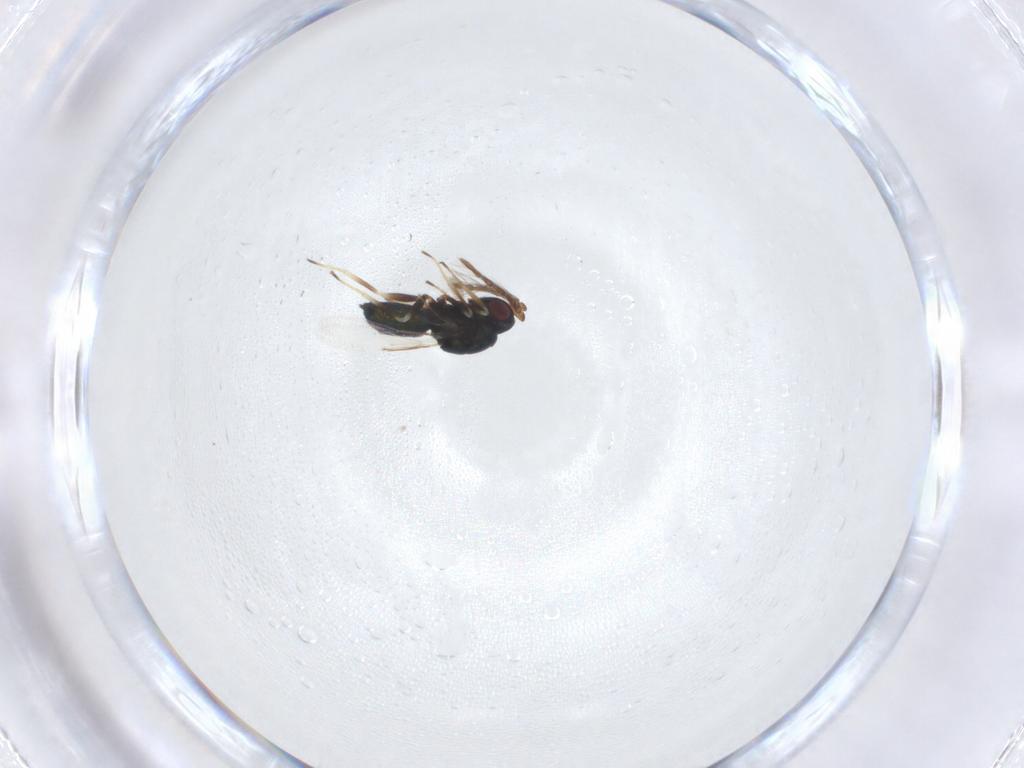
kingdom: Animalia
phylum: Arthropoda
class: Insecta
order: Hymenoptera
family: Eulophidae
